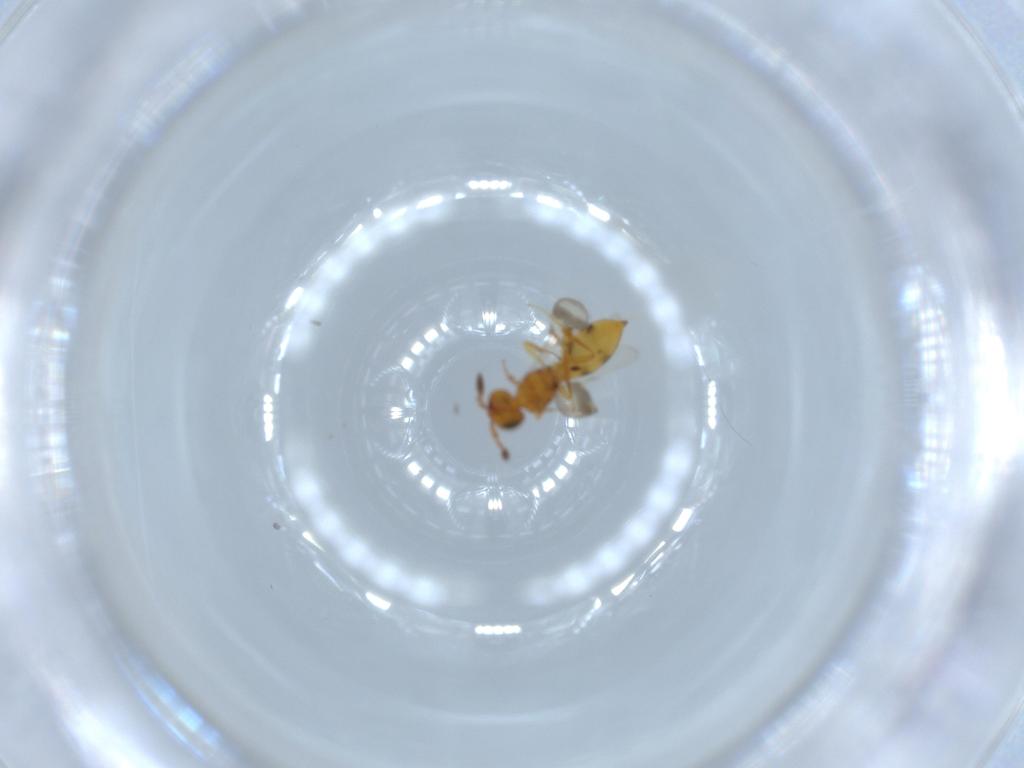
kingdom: Animalia
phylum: Arthropoda
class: Insecta
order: Hymenoptera
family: Scelionidae
